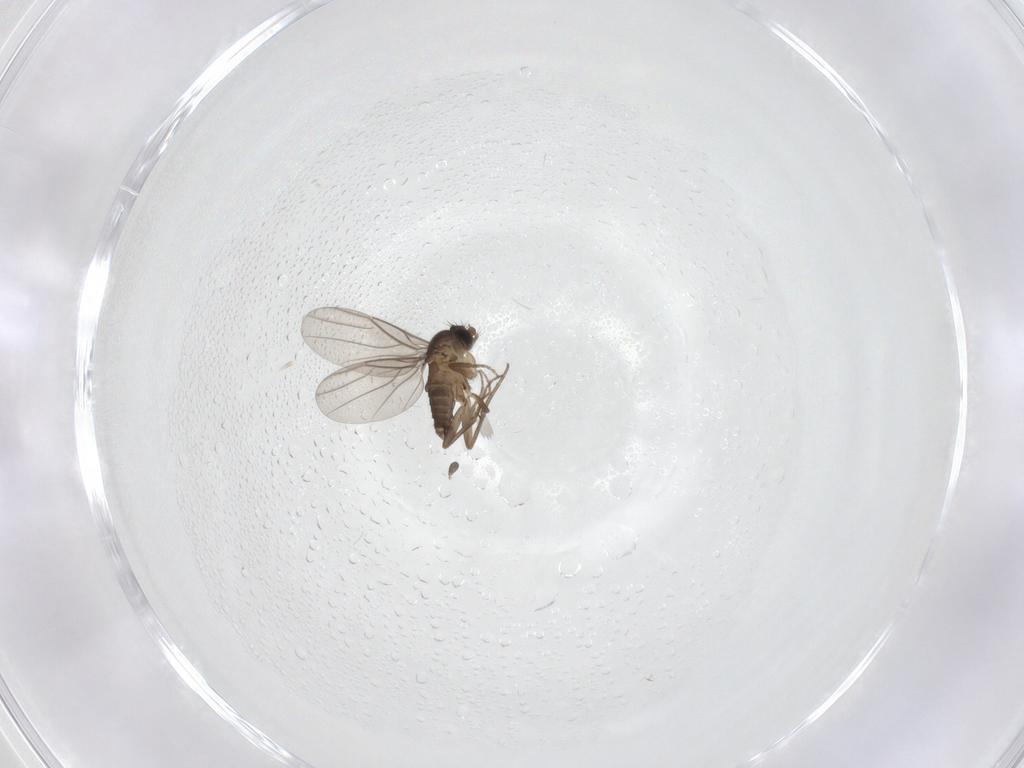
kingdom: Animalia
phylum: Arthropoda
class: Insecta
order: Diptera
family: Phoridae
